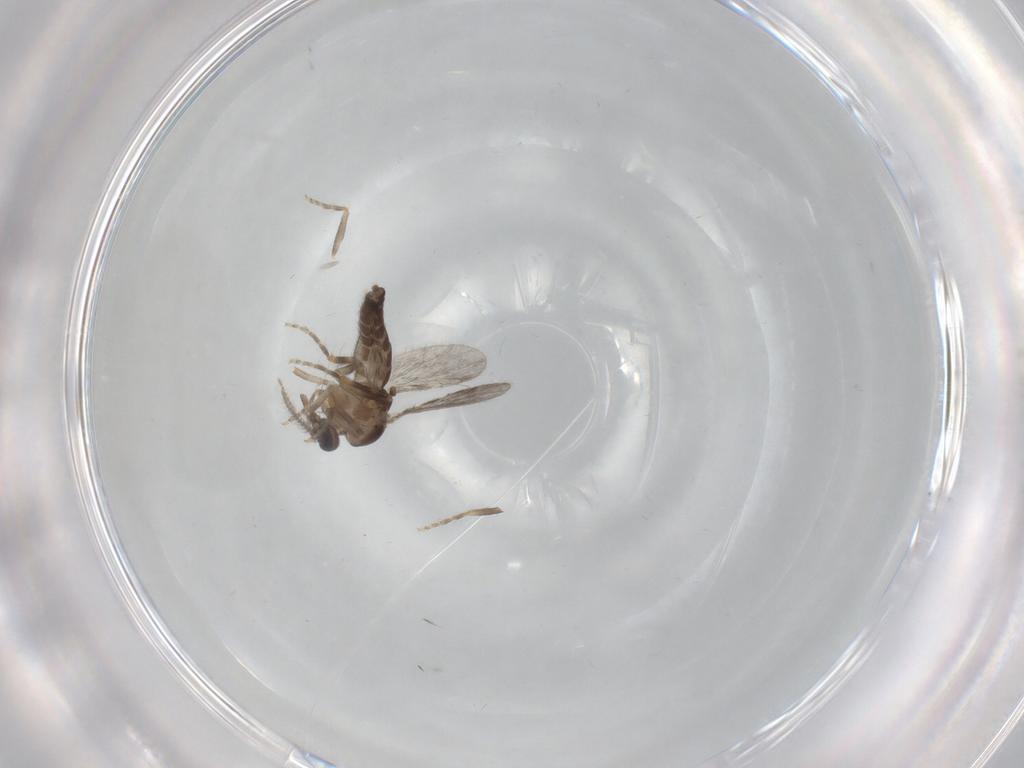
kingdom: Animalia
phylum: Arthropoda
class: Insecta
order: Diptera
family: Ceratopogonidae
